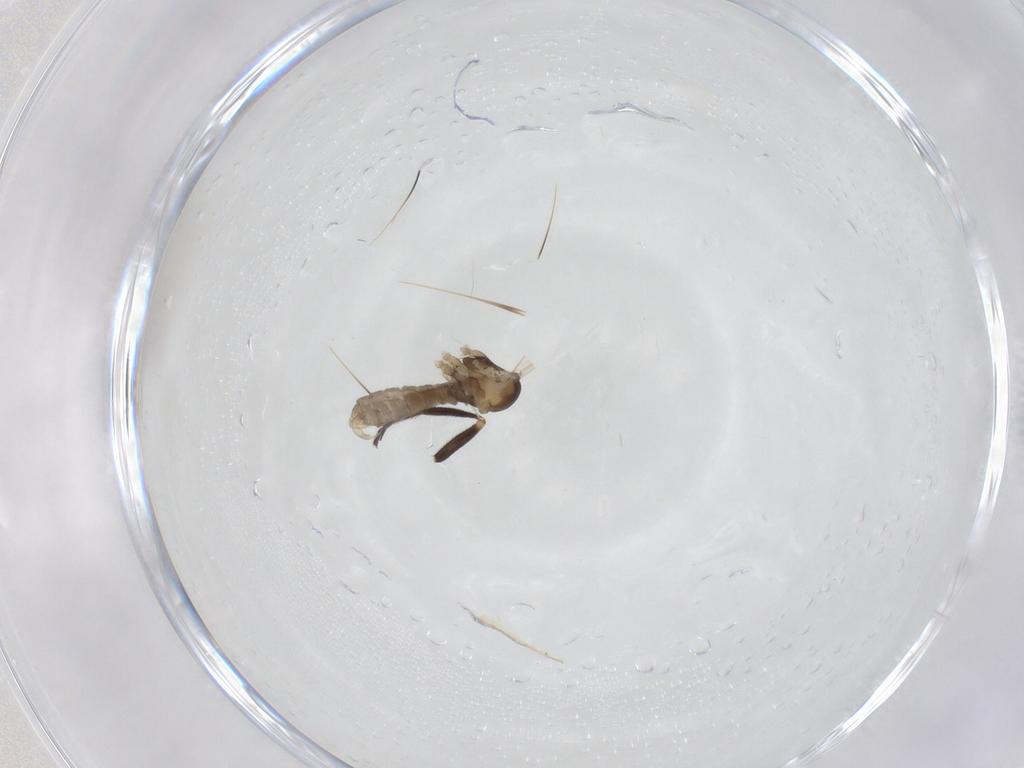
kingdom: Animalia
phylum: Arthropoda
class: Insecta
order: Diptera
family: Cecidomyiidae
